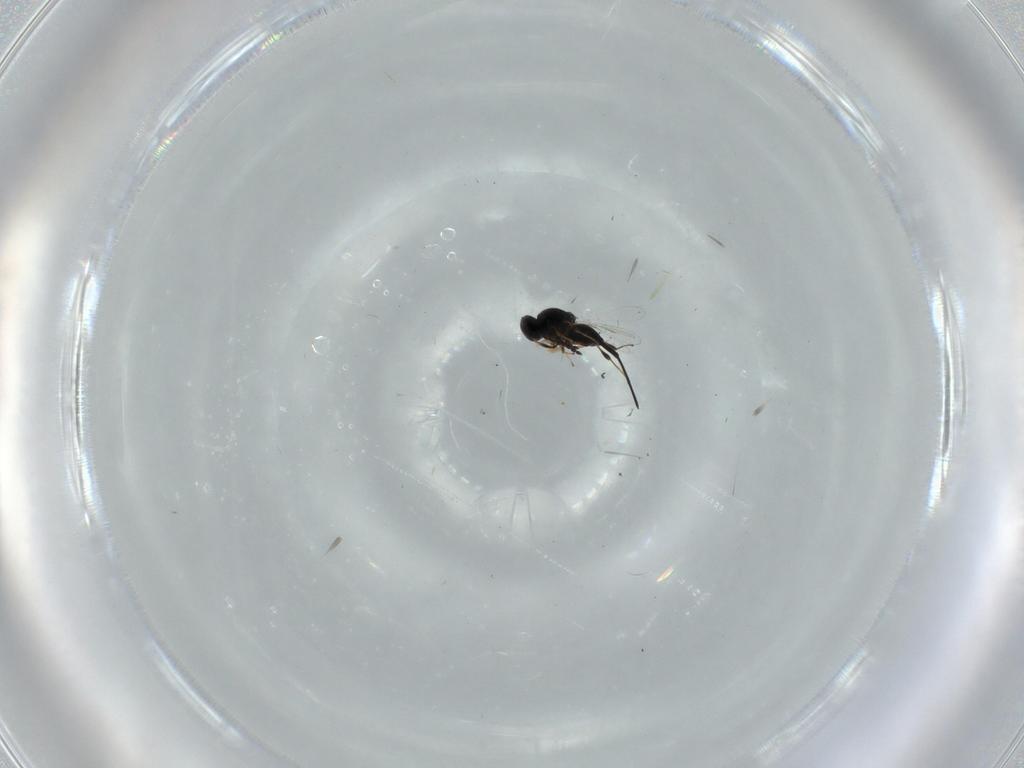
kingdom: Animalia
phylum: Arthropoda
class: Insecta
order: Hymenoptera
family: Platygastridae
